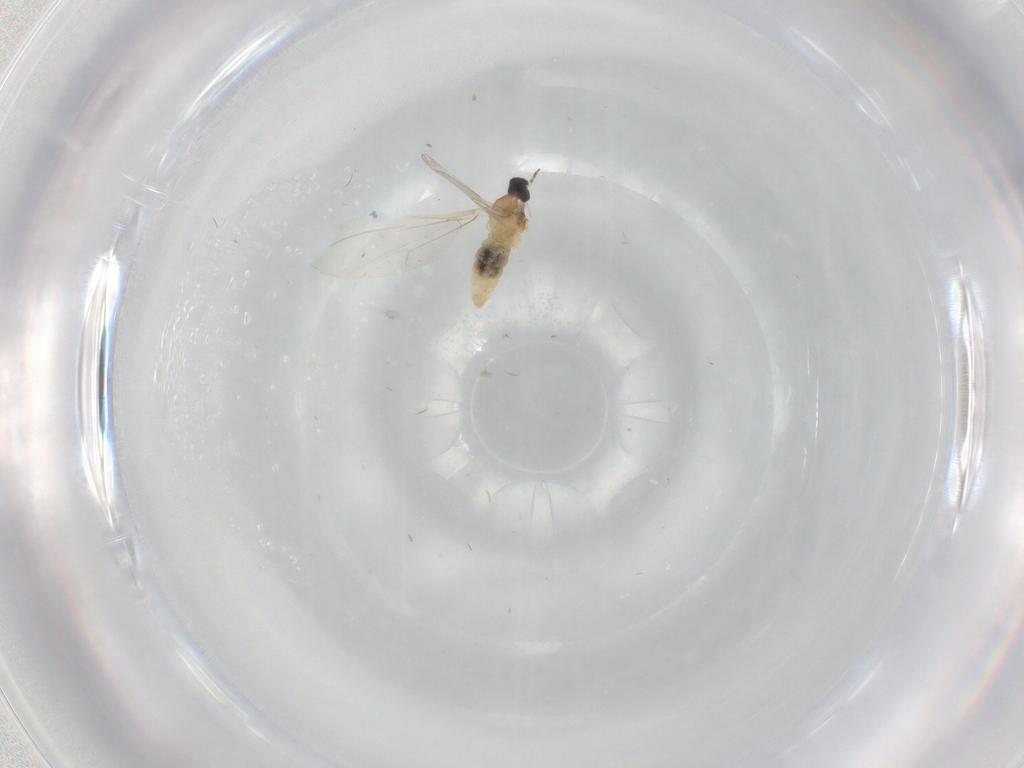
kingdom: Animalia
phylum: Arthropoda
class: Insecta
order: Diptera
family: Cecidomyiidae
